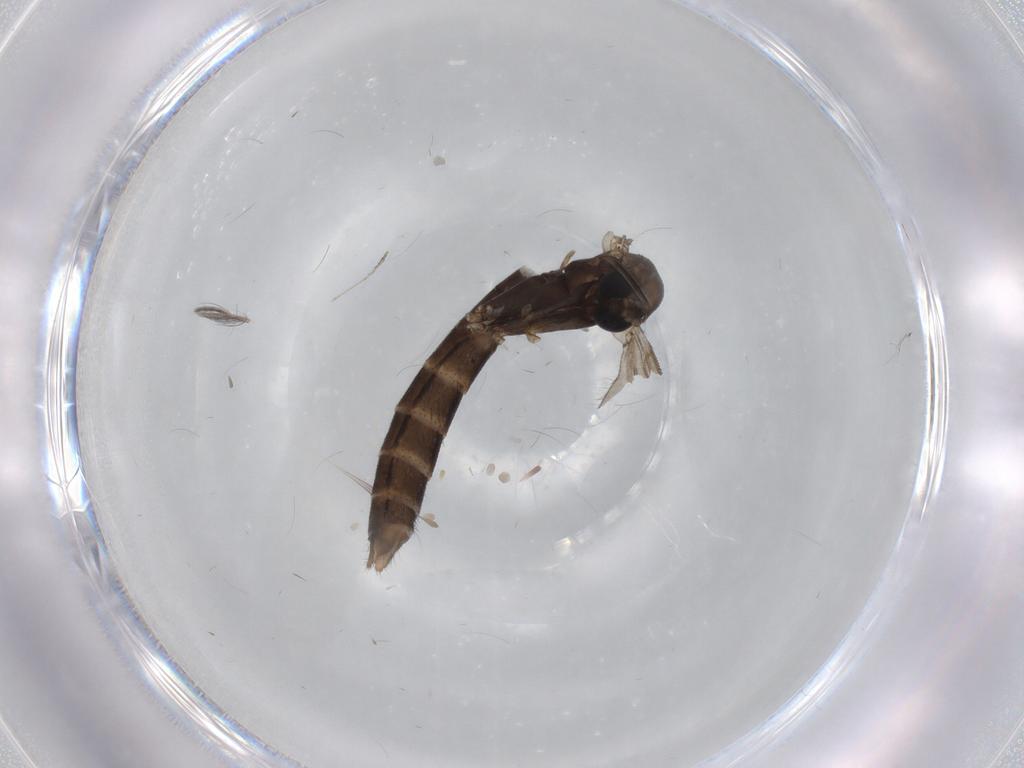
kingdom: Animalia
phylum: Arthropoda
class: Insecta
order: Diptera
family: Ditomyiidae
